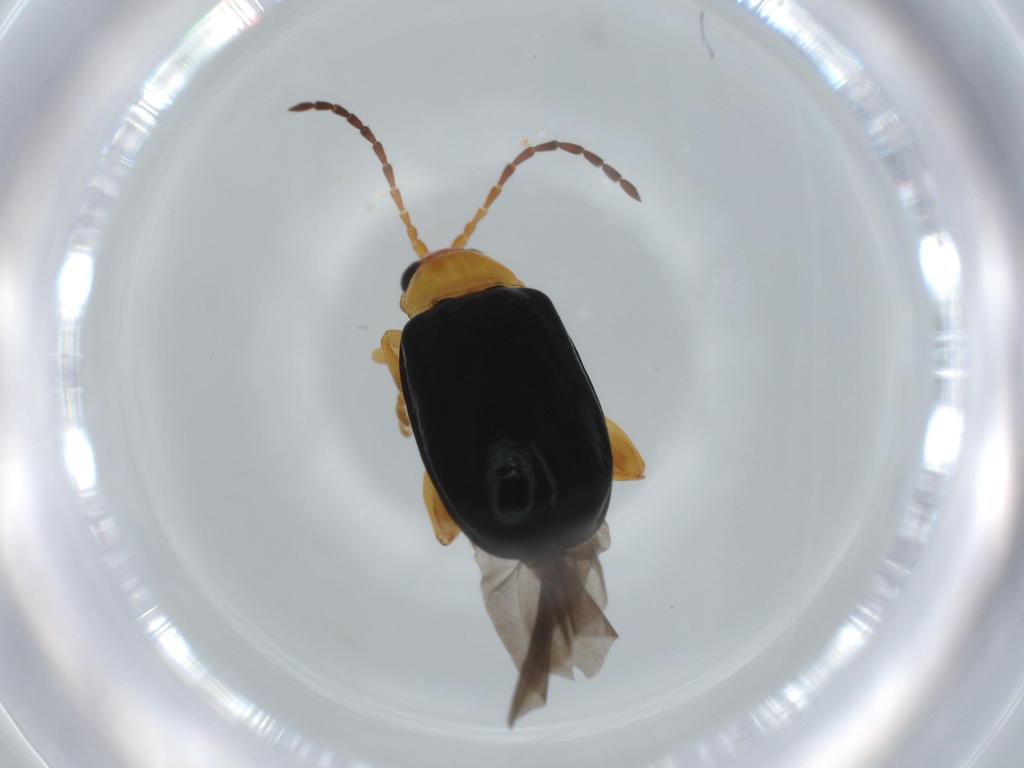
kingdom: Animalia
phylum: Arthropoda
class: Insecta
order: Coleoptera
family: Chrysomelidae
